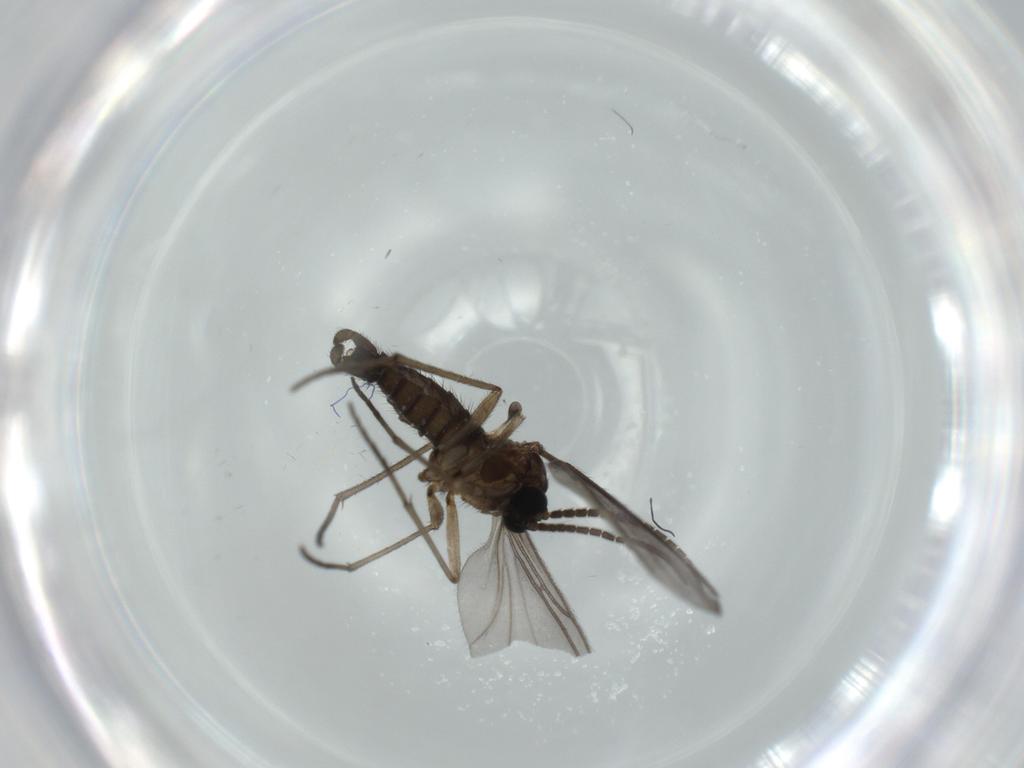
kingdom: Animalia
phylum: Arthropoda
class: Insecta
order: Diptera
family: Sciaridae
